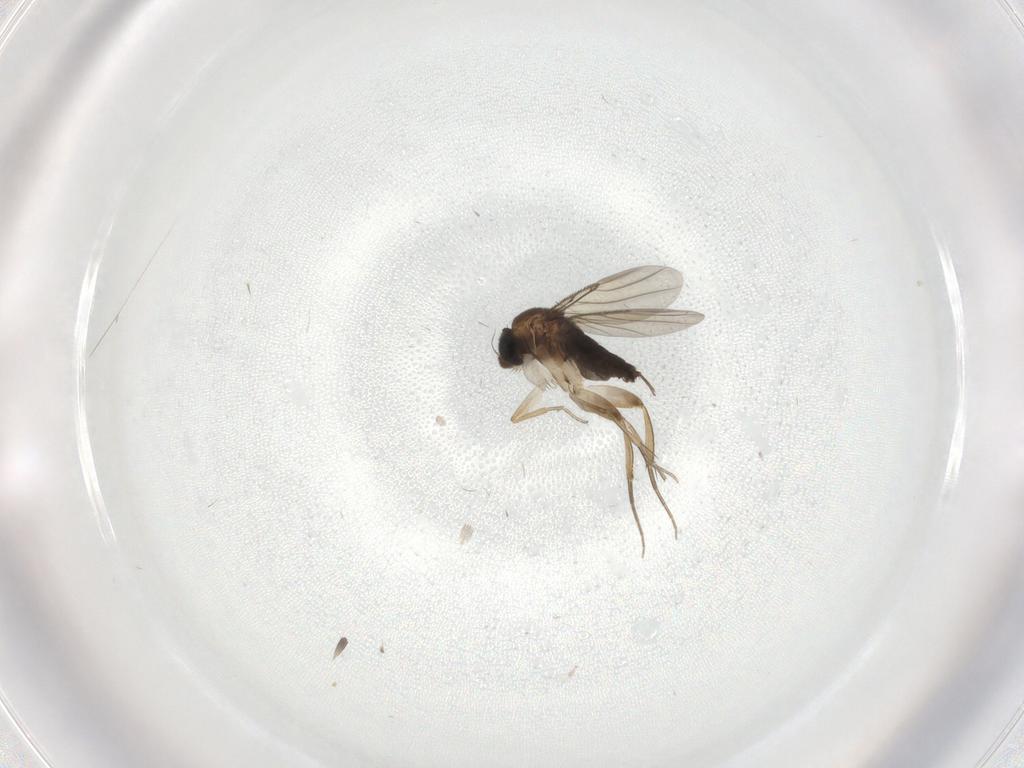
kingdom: Animalia
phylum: Arthropoda
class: Insecta
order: Diptera
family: Phoridae
